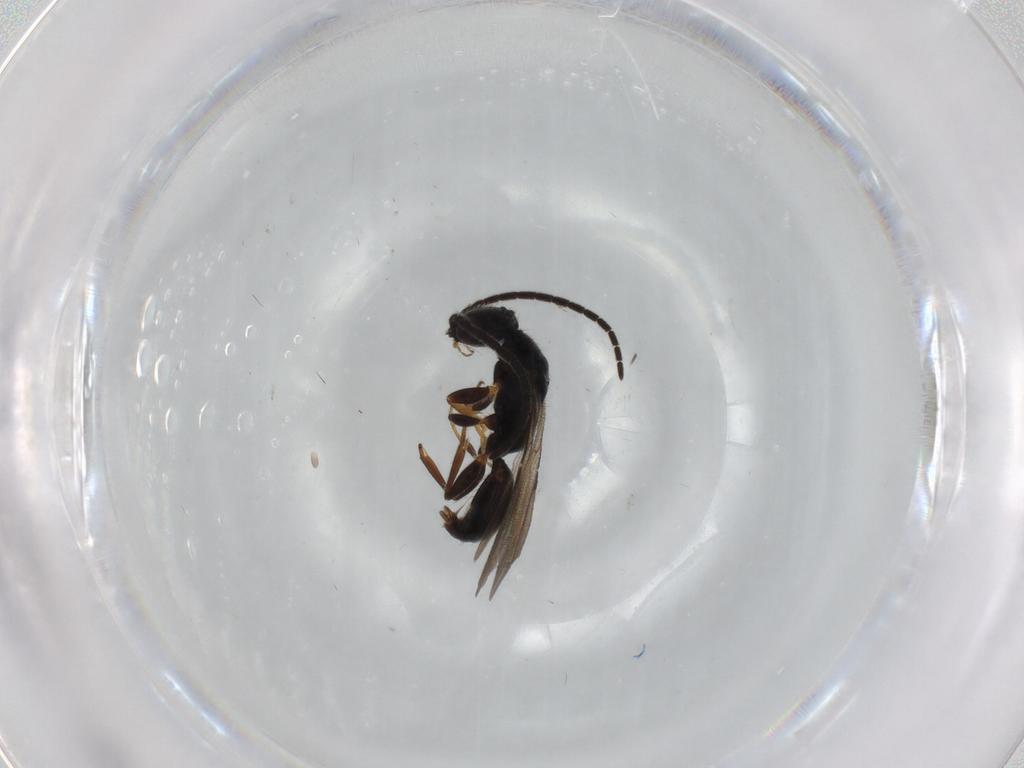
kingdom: Animalia
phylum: Arthropoda
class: Insecta
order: Hymenoptera
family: Bethylidae
